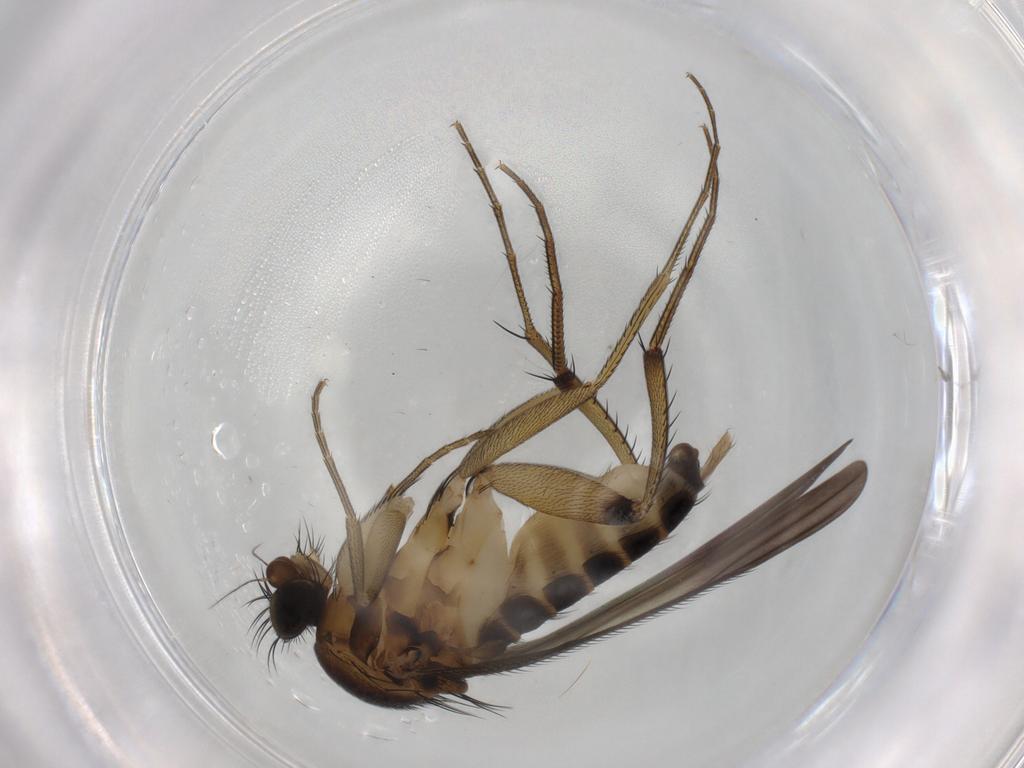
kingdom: Animalia
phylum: Arthropoda
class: Insecta
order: Diptera
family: Phoridae
